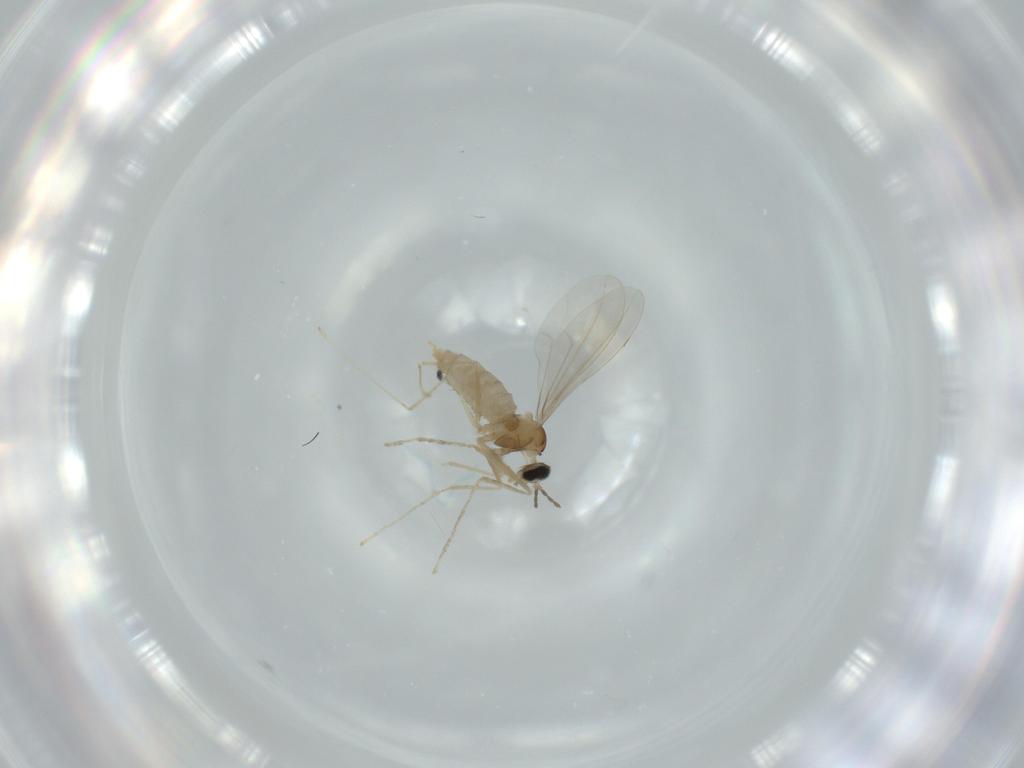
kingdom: Animalia
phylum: Arthropoda
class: Insecta
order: Diptera
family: Cecidomyiidae
